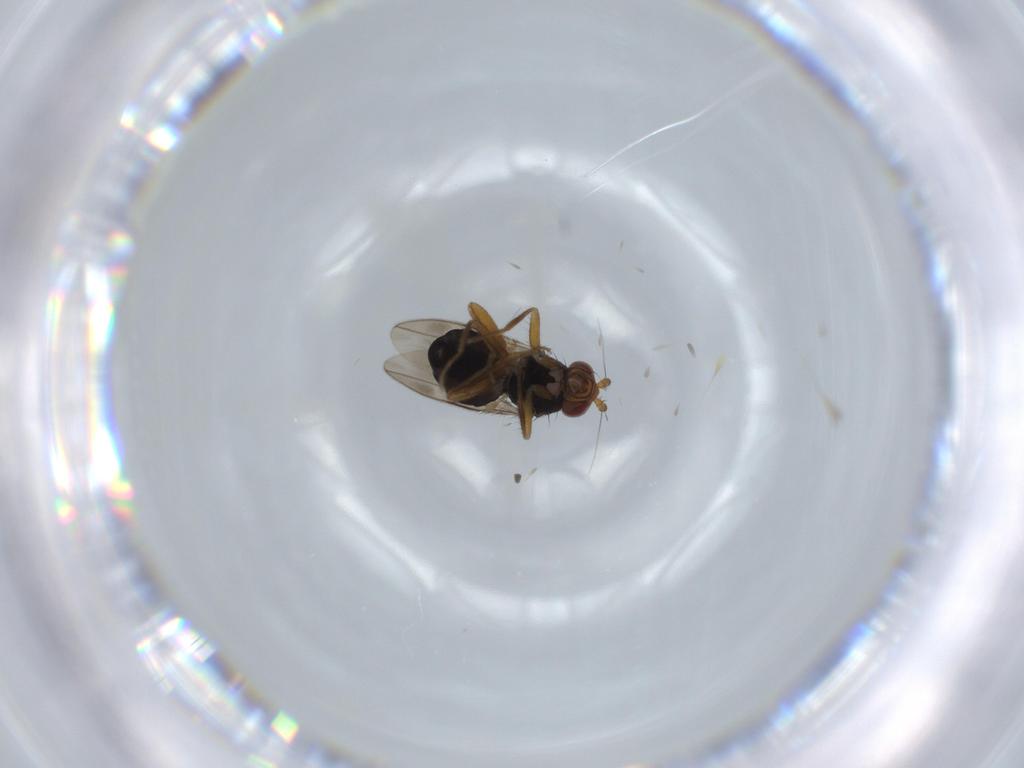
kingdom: Animalia
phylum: Arthropoda
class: Insecta
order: Diptera
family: Sphaeroceridae
